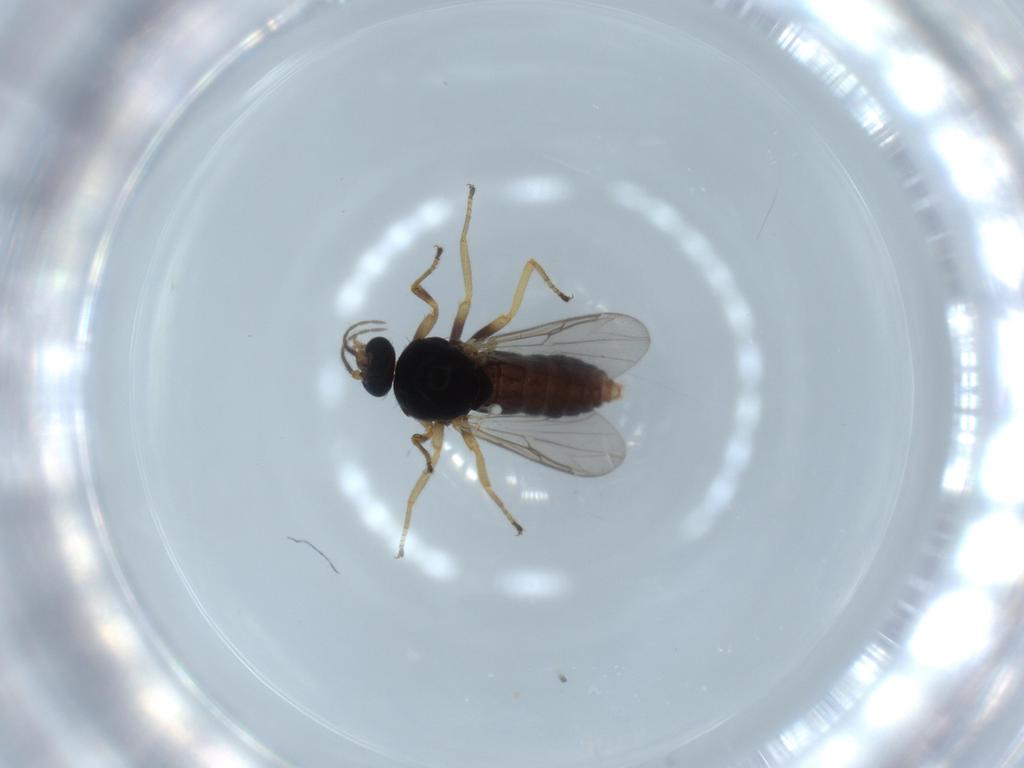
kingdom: Animalia
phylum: Arthropoda
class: Insecta
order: Diptera
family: Ceratopogonidae
